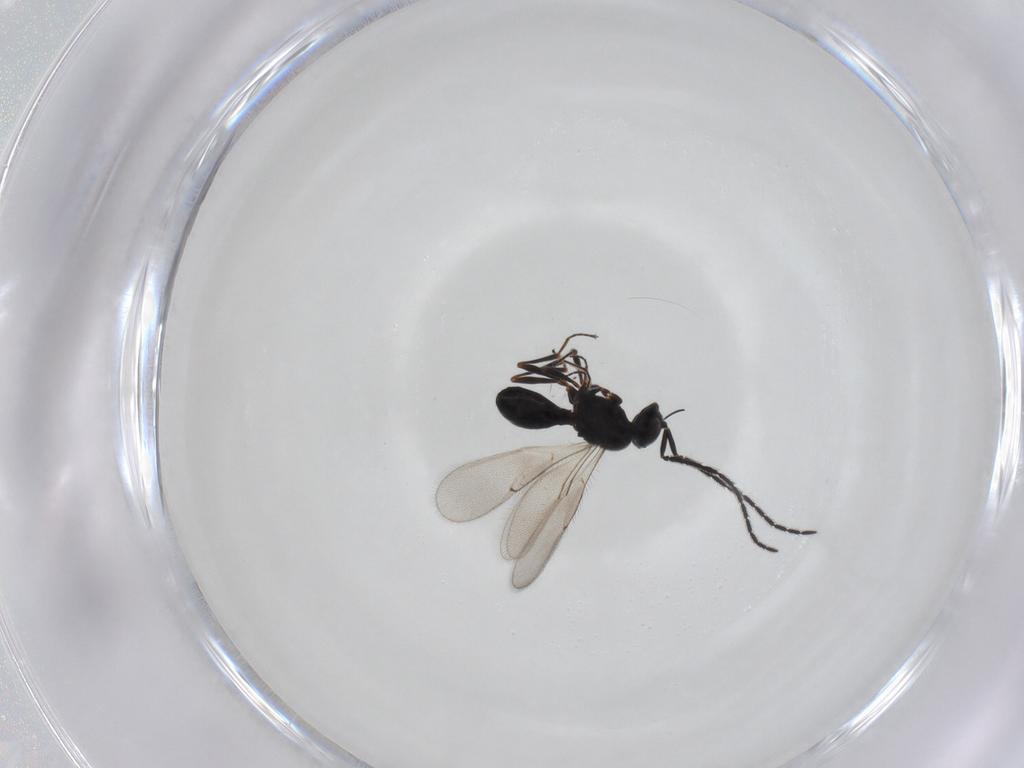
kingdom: Animalia
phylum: Arthropoda
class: Insecta
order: Hymenoptera
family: Scelionidae
